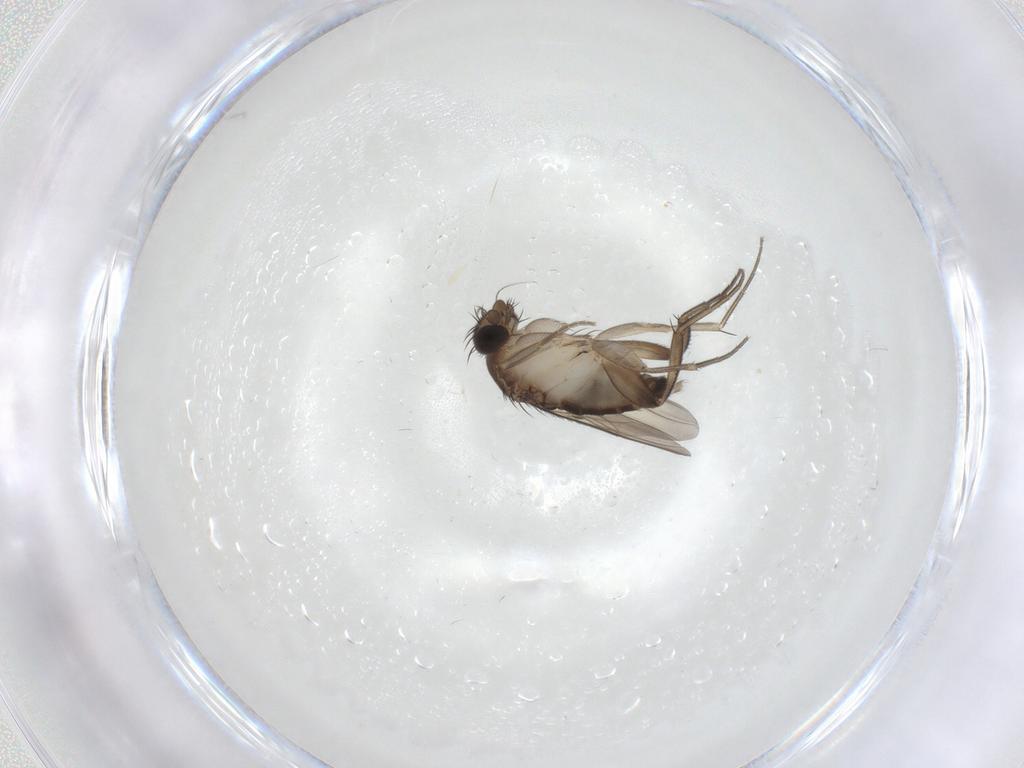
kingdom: Animalia
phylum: Arthropoda
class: Insecta
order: Diptera
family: Phoridae
